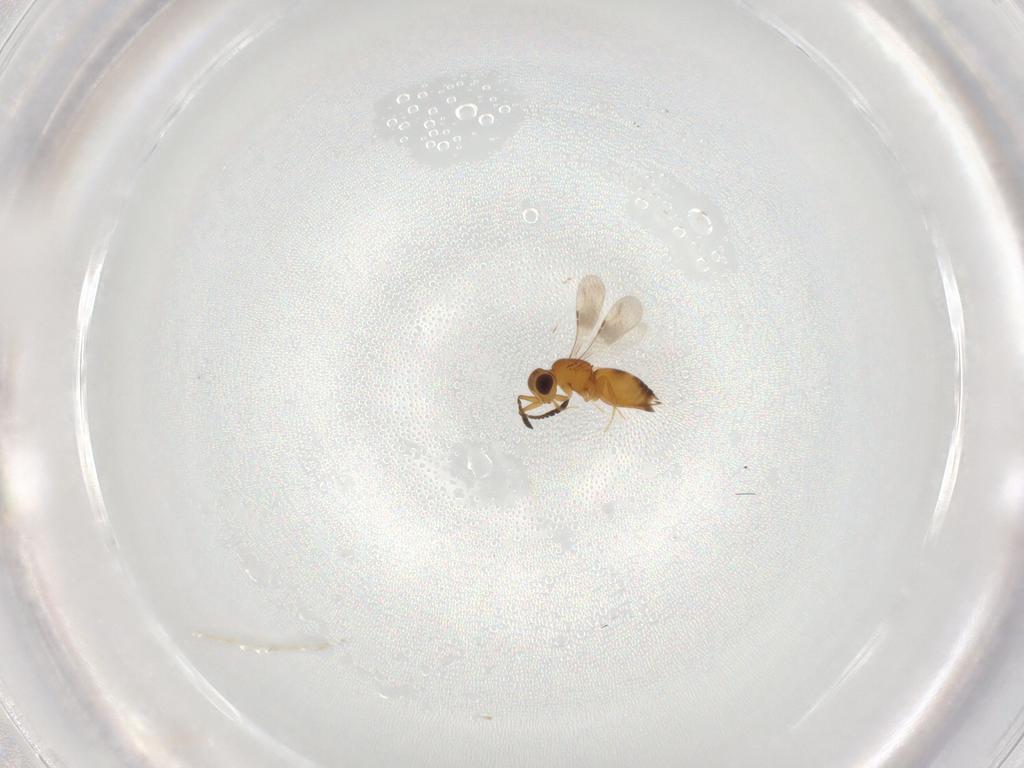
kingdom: Animalia
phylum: Arthropoda
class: Insecta
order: Hymenoptera
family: Ceraphronidae
